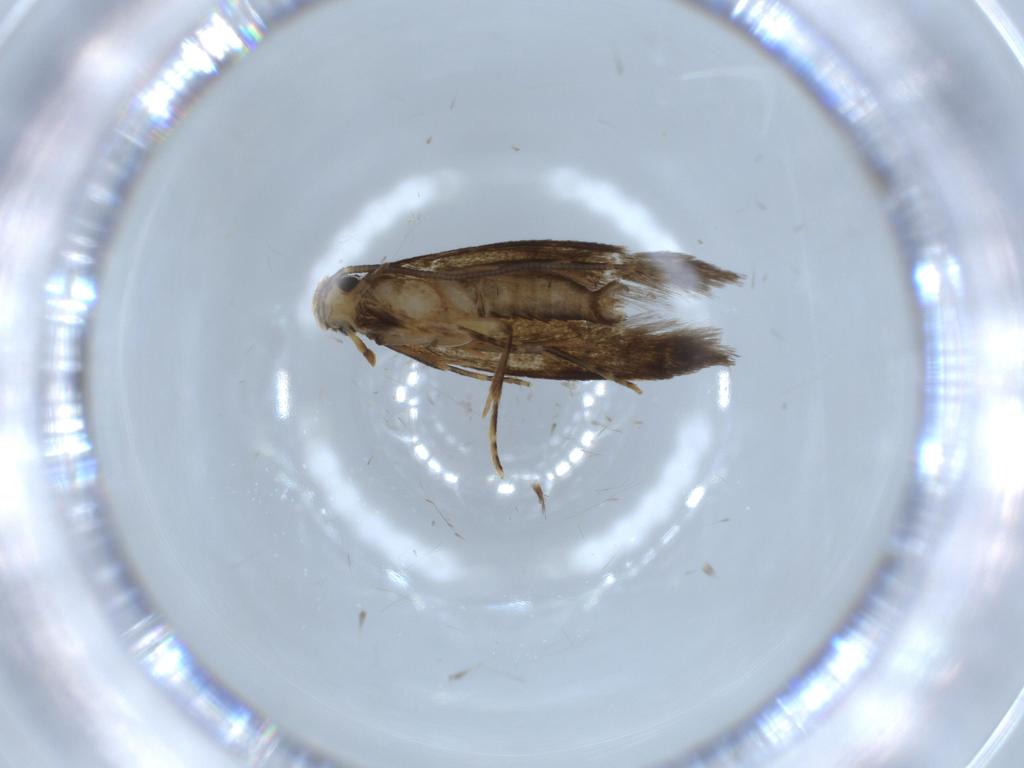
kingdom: Animalia
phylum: Arthropoda
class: Insecta
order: Lepidoptera
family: Tineidae
